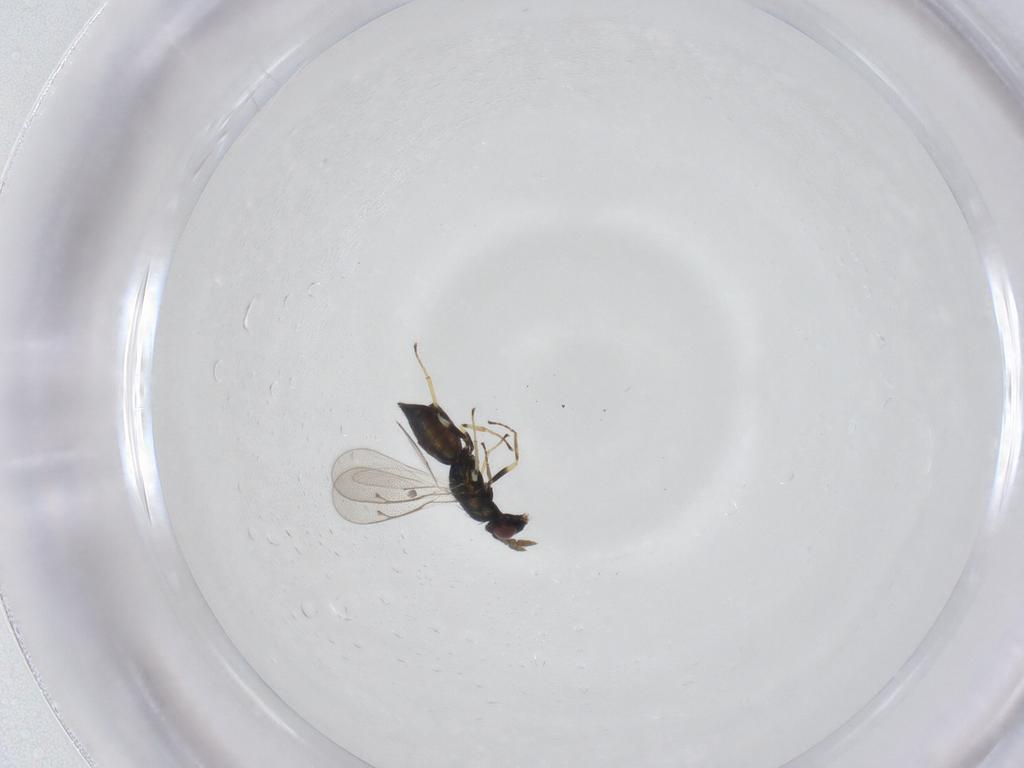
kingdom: Animalia
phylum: Arthropoda
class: Insecta
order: Hymenoptera
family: Eulophidae
